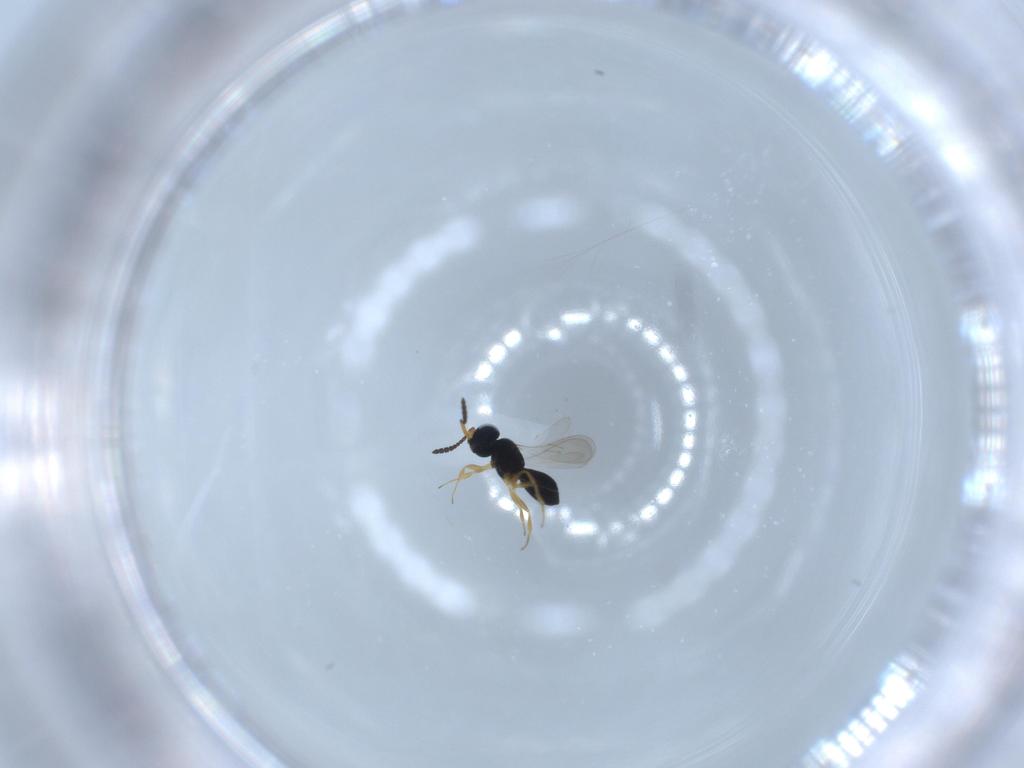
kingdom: Animalia
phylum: Arthropoda
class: Insecta
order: Hymenoptera
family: Scelionidae
